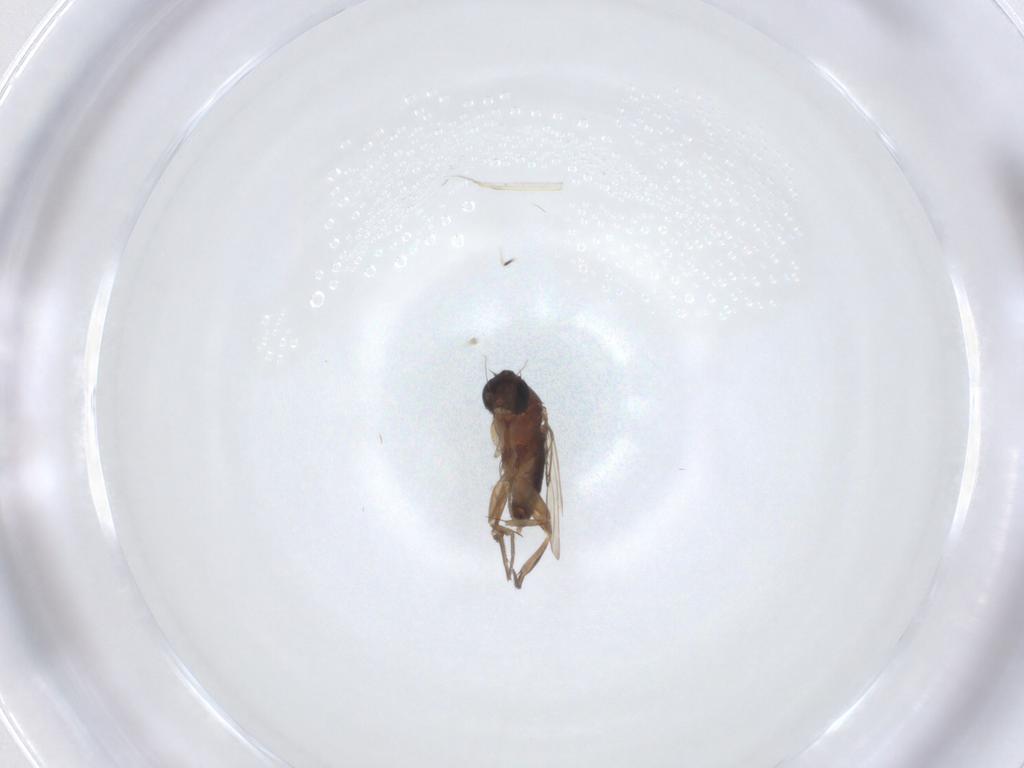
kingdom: Animalia
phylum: Arthropoda
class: Insecta
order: Diptera
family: Phoridae
